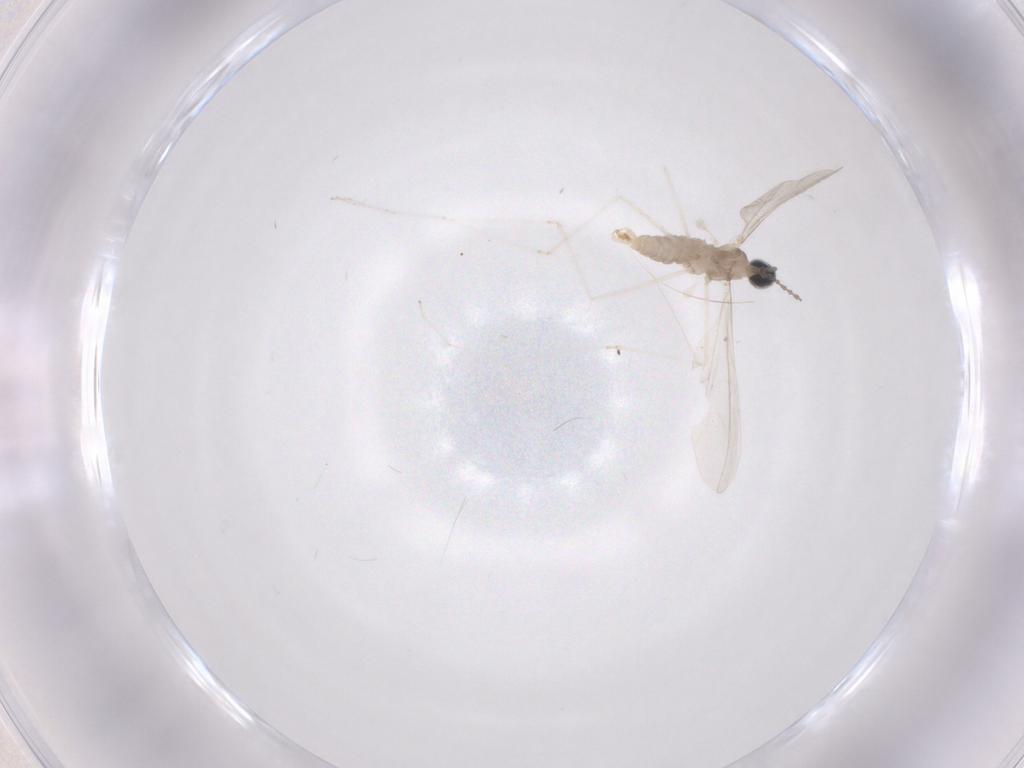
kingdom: Animalia
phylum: Arthropoda
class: Insecta
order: Diptera
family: Cecidomyiidae
